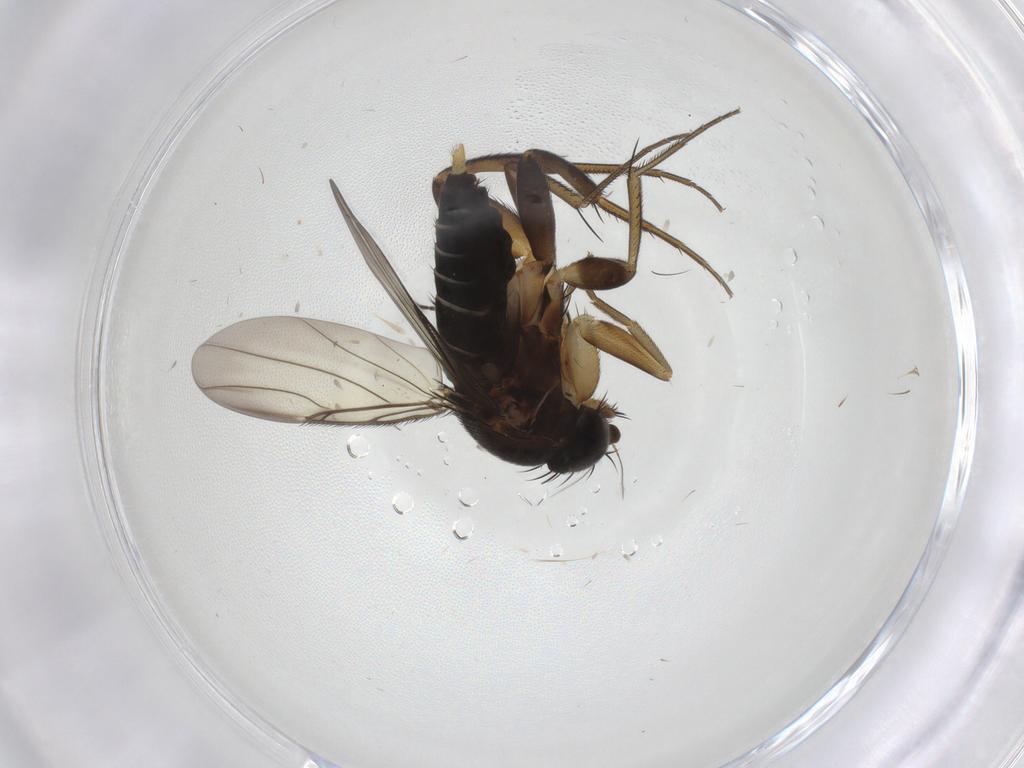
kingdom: Animalia
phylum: Arthropoda
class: Insecta
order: Diptera
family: Phoridae
